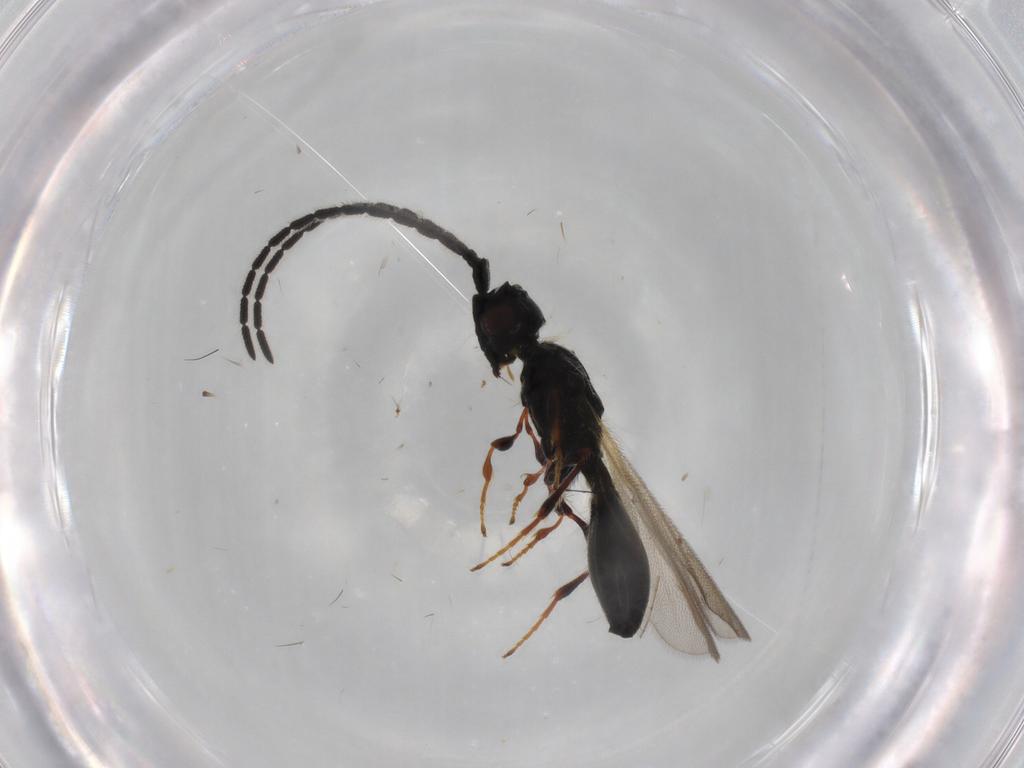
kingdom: Animalia
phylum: Arthropoda
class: Insecta
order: Hymenoptera
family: Diapriidae
